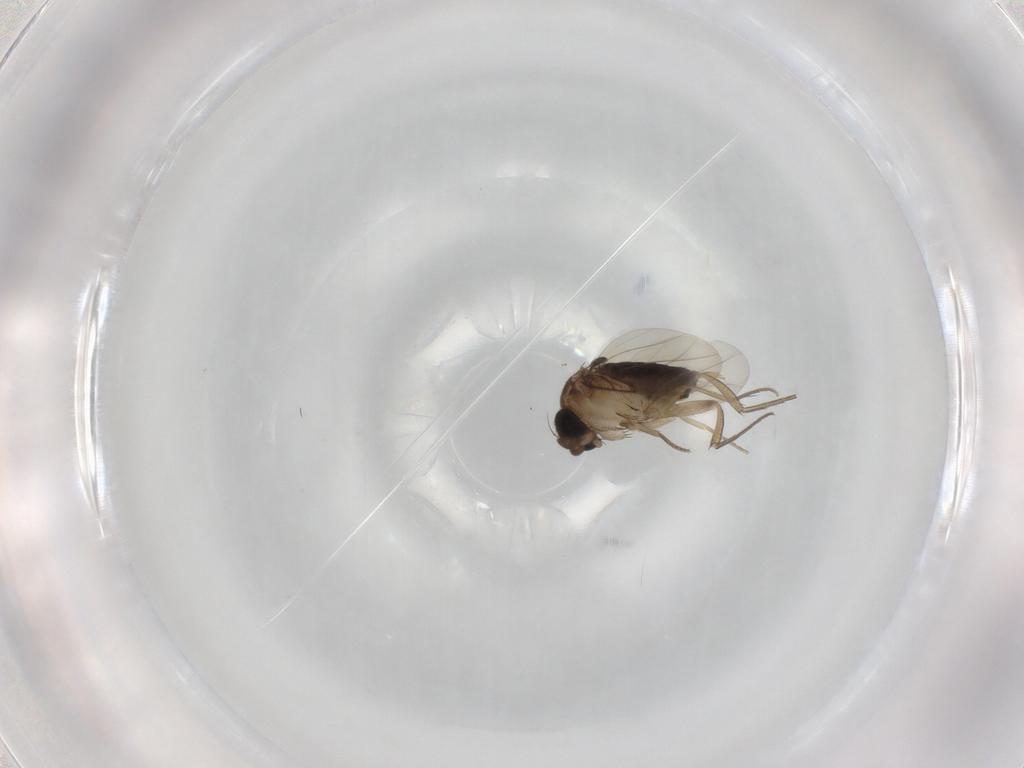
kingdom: Animalia
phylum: Arthropoda
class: Insecta
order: Diptera
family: Phoridae
